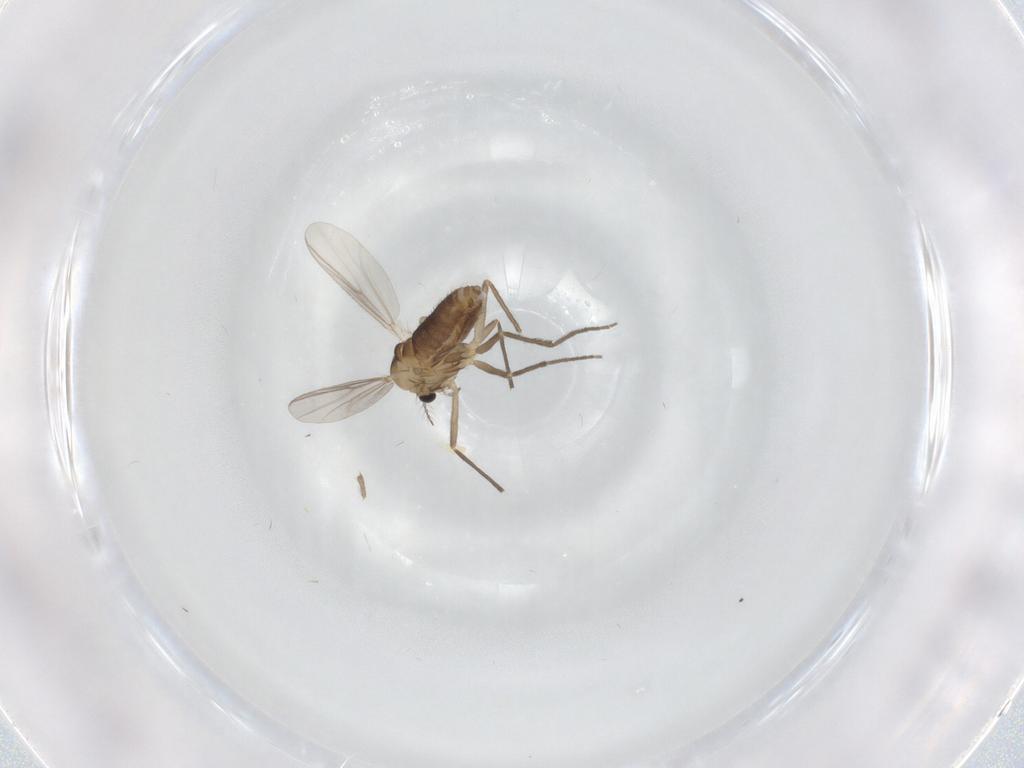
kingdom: Animalia
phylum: Arthropoda
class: Insecta
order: Diptera
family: Chironomidae
